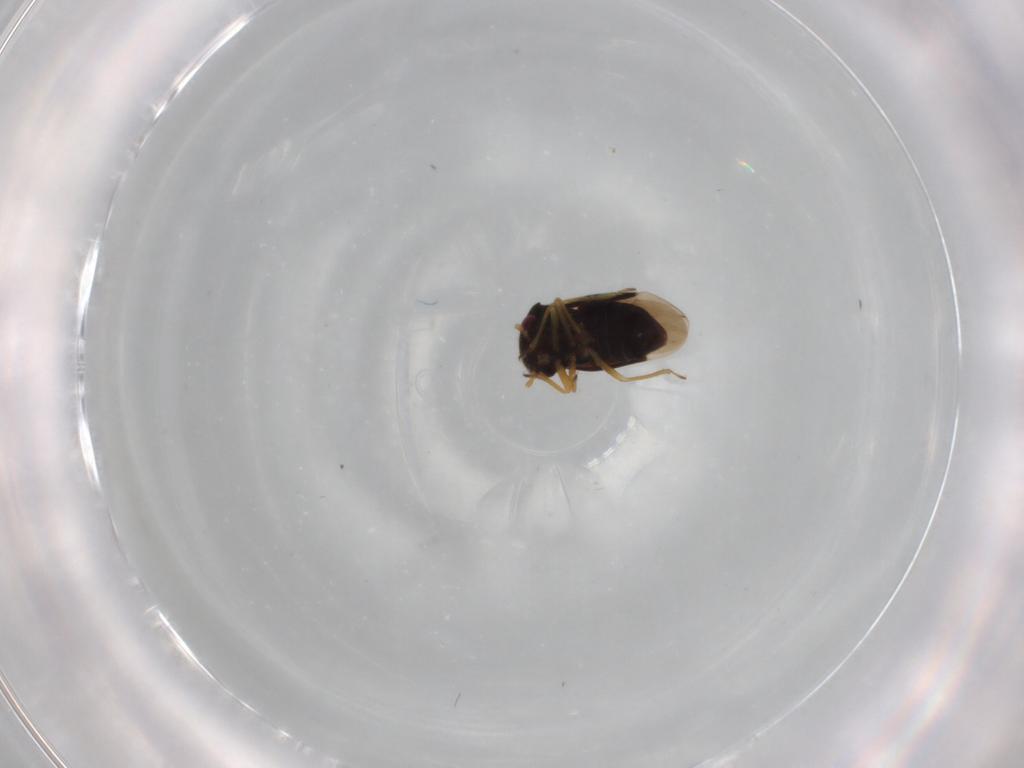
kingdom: Animalia
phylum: Arthropoda
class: Insecta
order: Hemiptera
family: Schizopteridae
